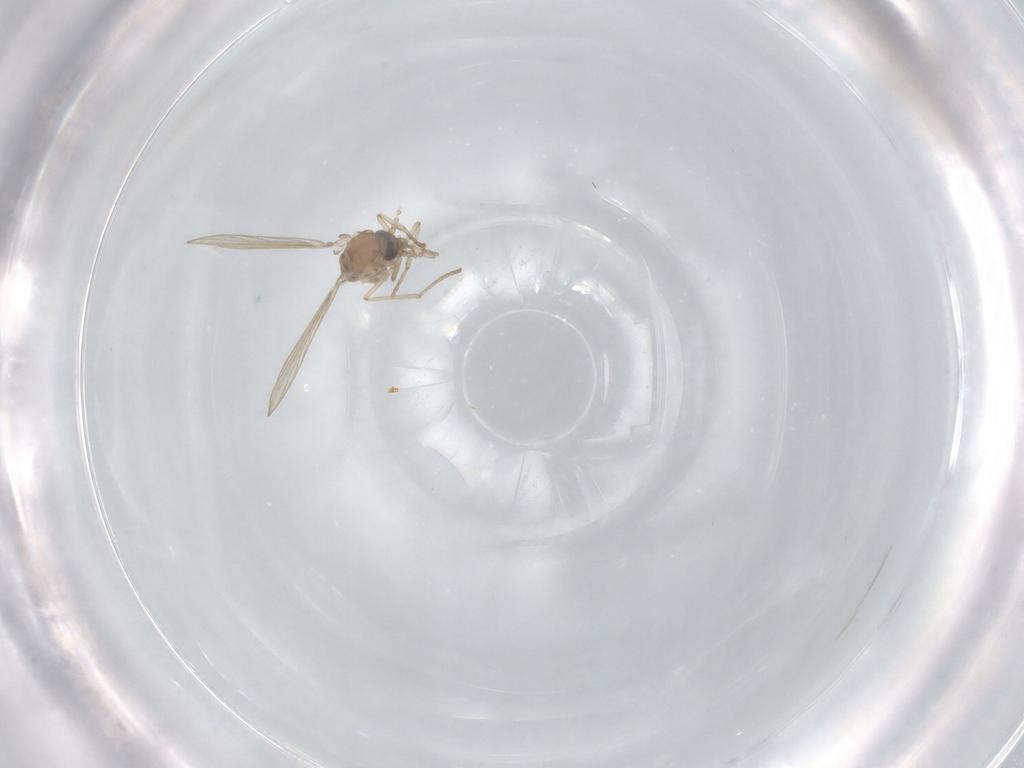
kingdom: Animalia
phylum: Arthropoda
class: Insecta
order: Diptera
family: Psychodidae
